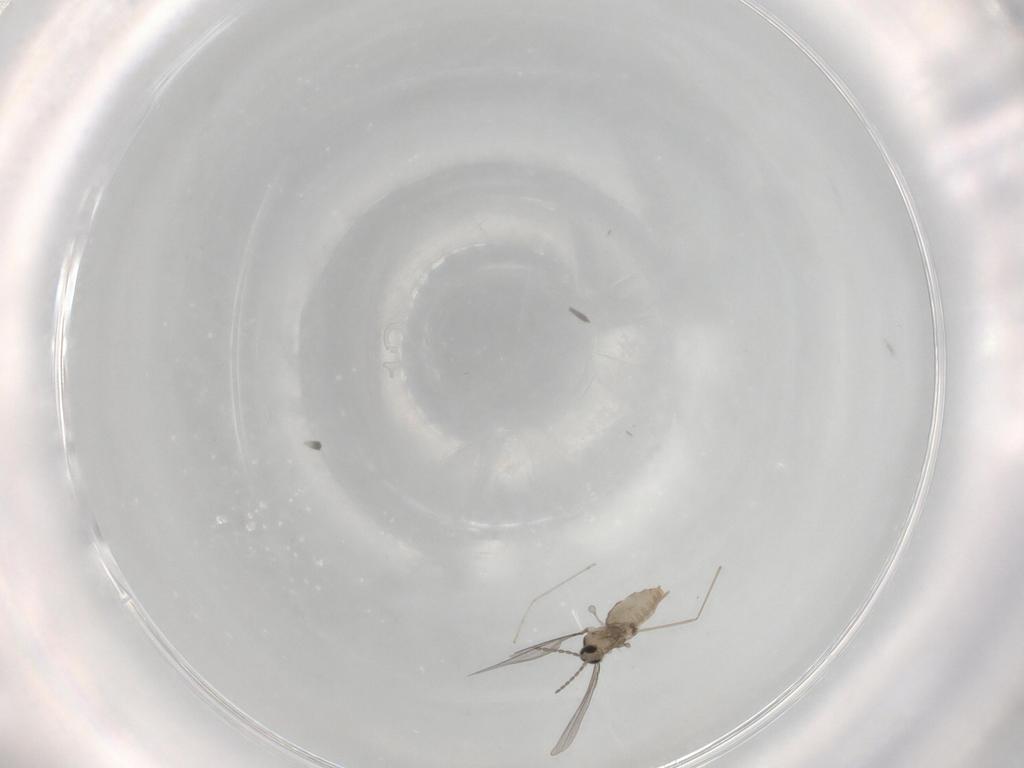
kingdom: Animalia
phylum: Arthropoda
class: Insecta
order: Diptera
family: Cecidomyiidae
